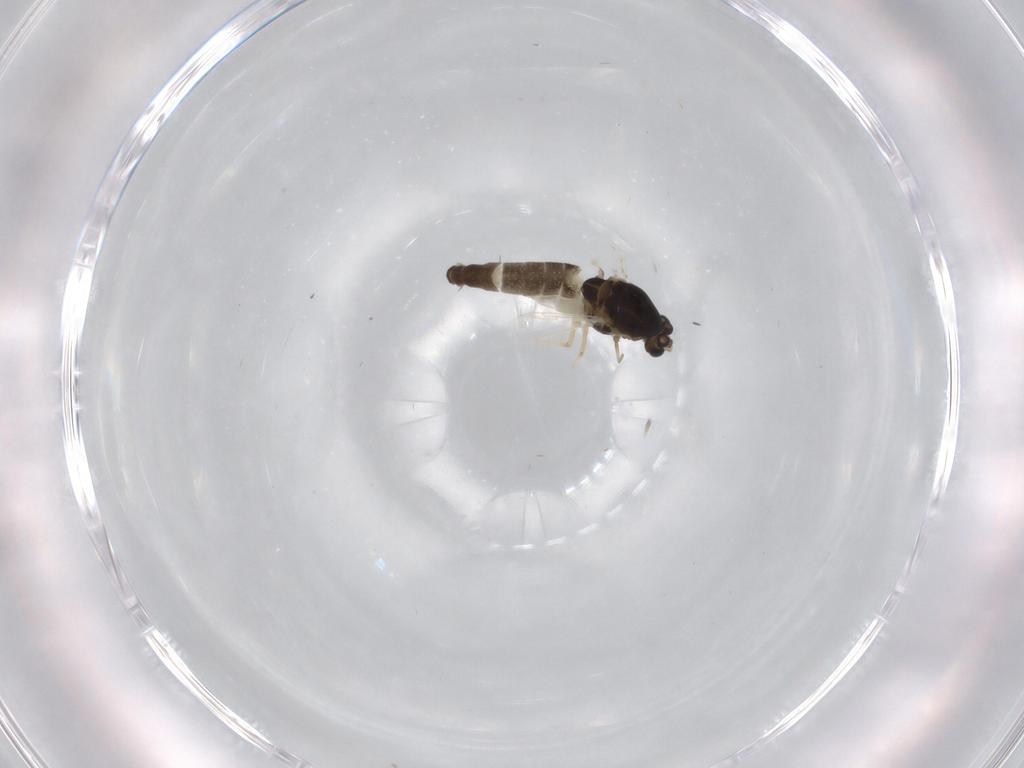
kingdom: Animalia
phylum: Arthropoda
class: Insecta
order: Diptera
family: Chironomidae
